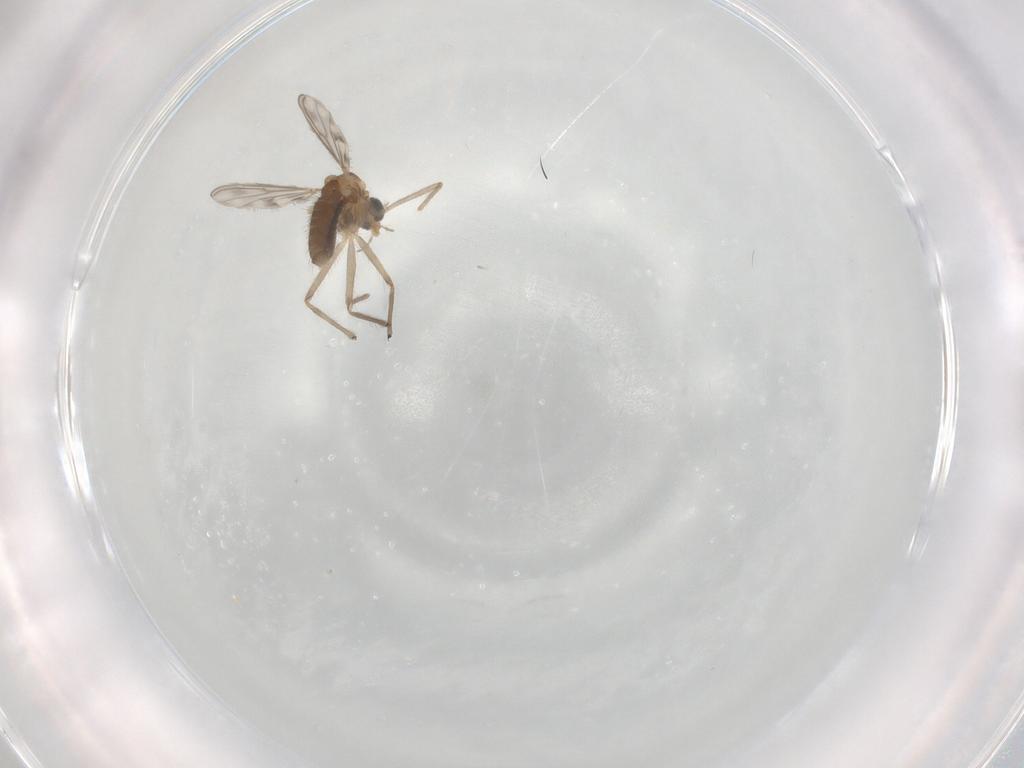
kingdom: Animalia
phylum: Arthropoda
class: Insecta
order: Diptera
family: Chironomidae
